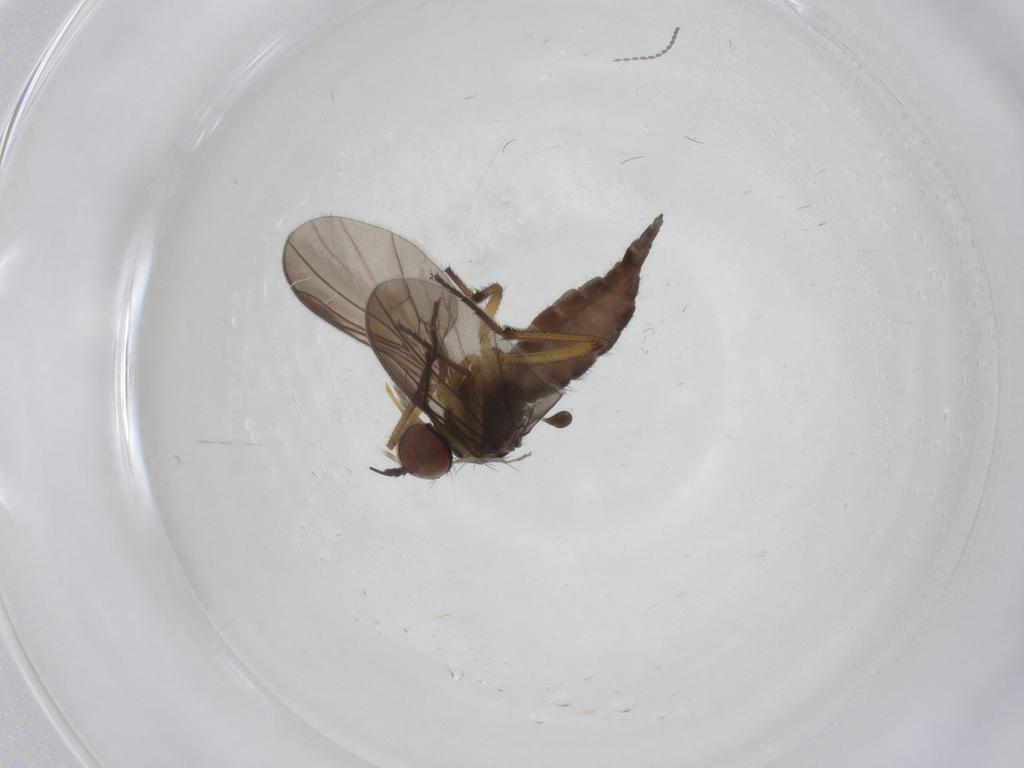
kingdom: Animalia
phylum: Arthropoda
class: Insecta
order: Diptera
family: Empididae
